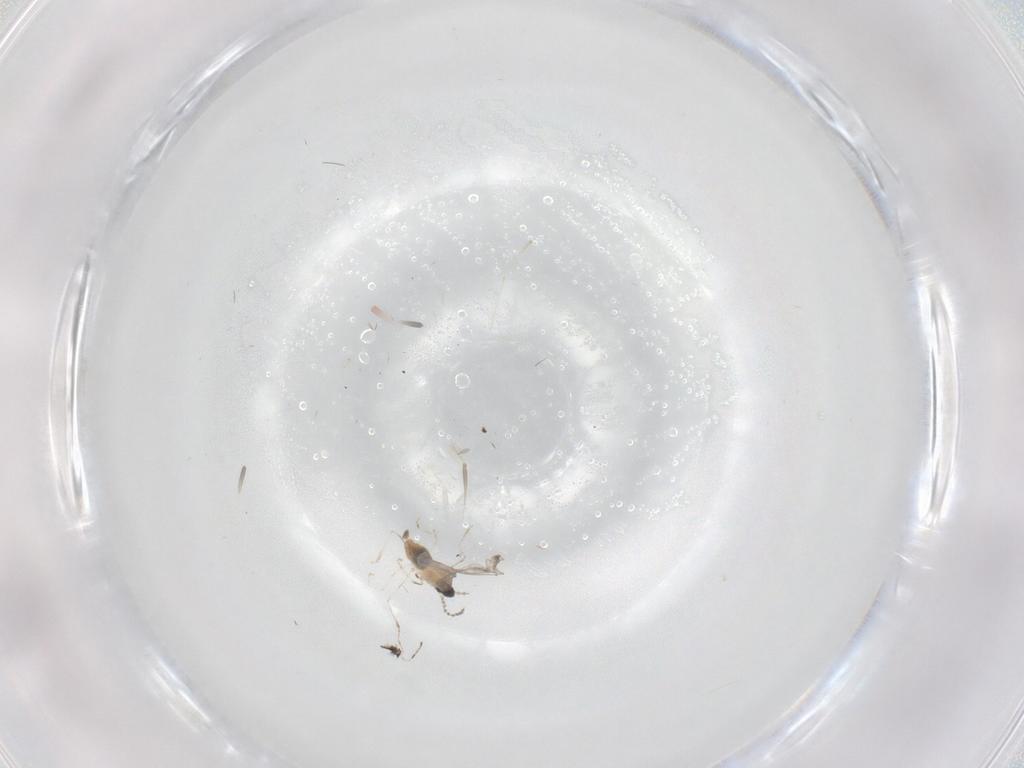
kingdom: Animalia
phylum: Arthropoda
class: Insecta
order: Diptera
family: Cecidomyiidae
